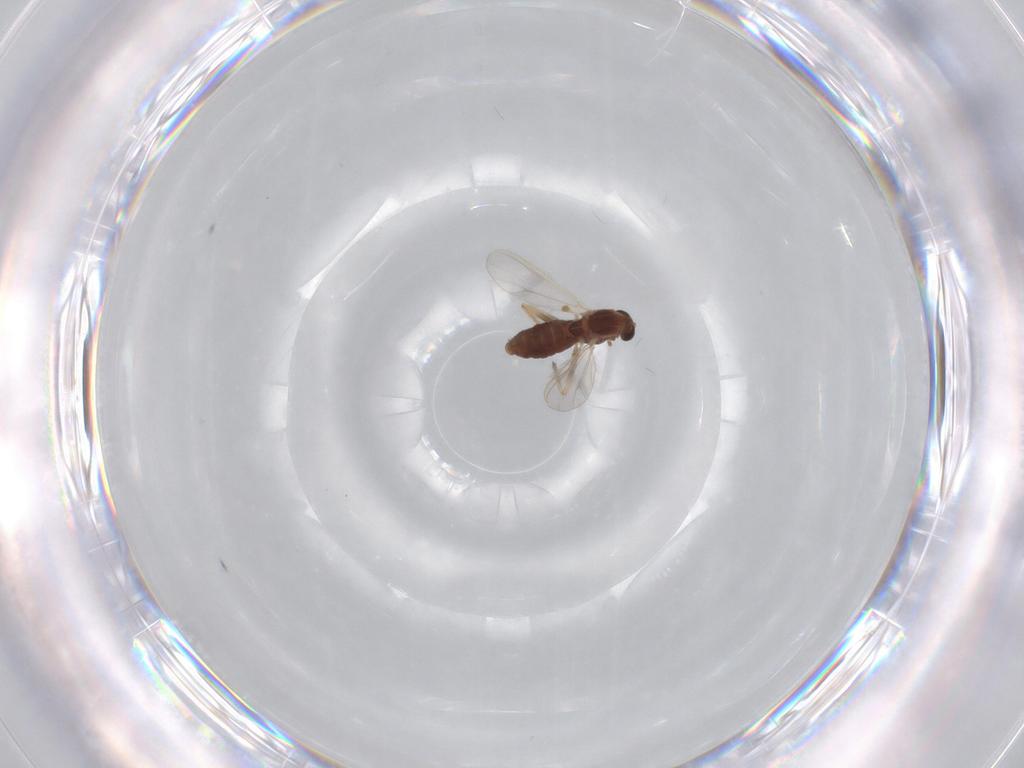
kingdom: Animalia
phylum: Arthropoda
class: Insecta
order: Diptera
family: Chironomidae
